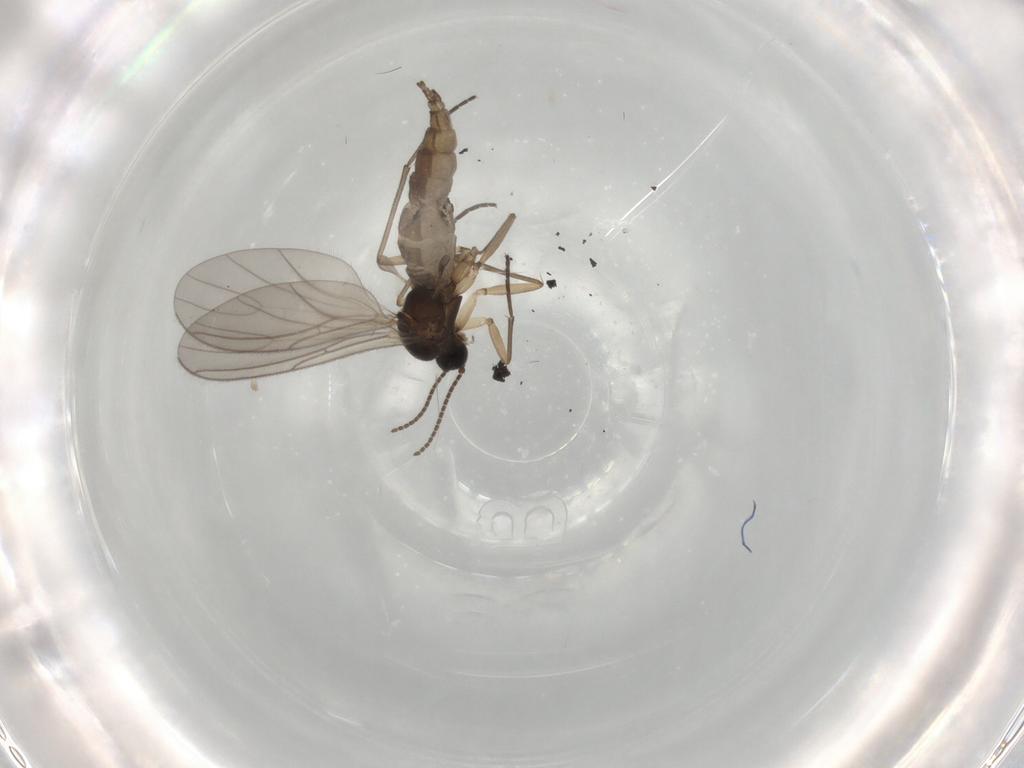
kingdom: Animalia
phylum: Arthropoda
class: Insecta
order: Diptera
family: Sciaridae
